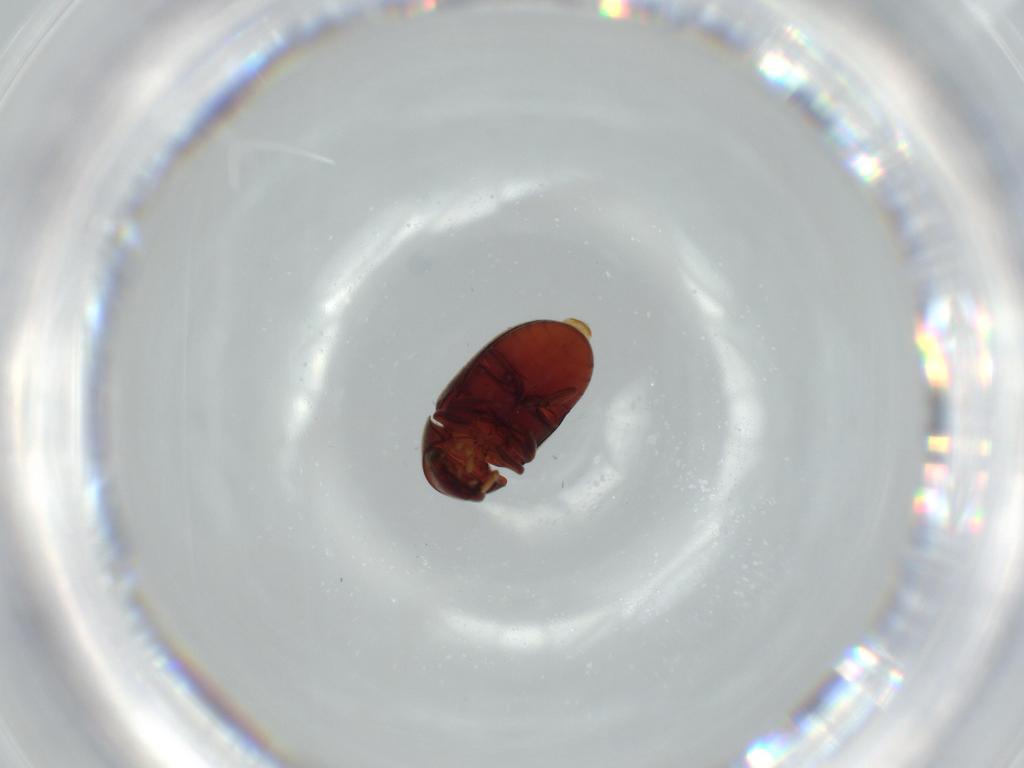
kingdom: Animalia
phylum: Arthropoda
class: Insecta
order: Coleoptera
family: Ptinidae
